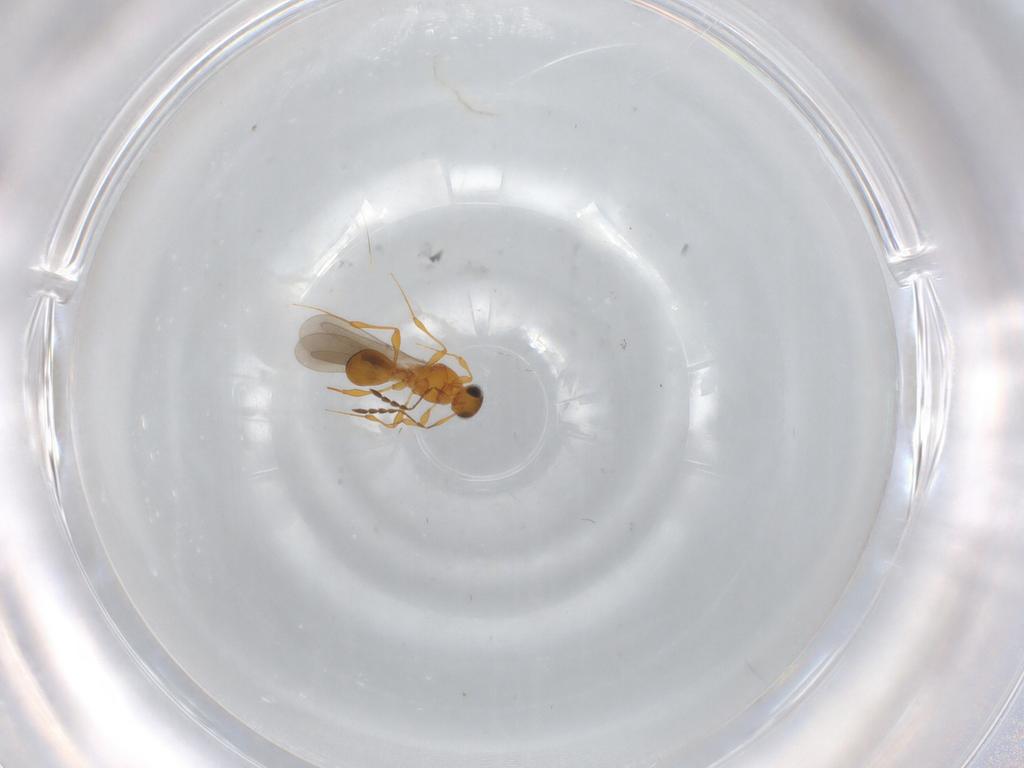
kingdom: Animalia
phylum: Arthropoda
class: Insecta
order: Hymenoptera
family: Platygastridae
